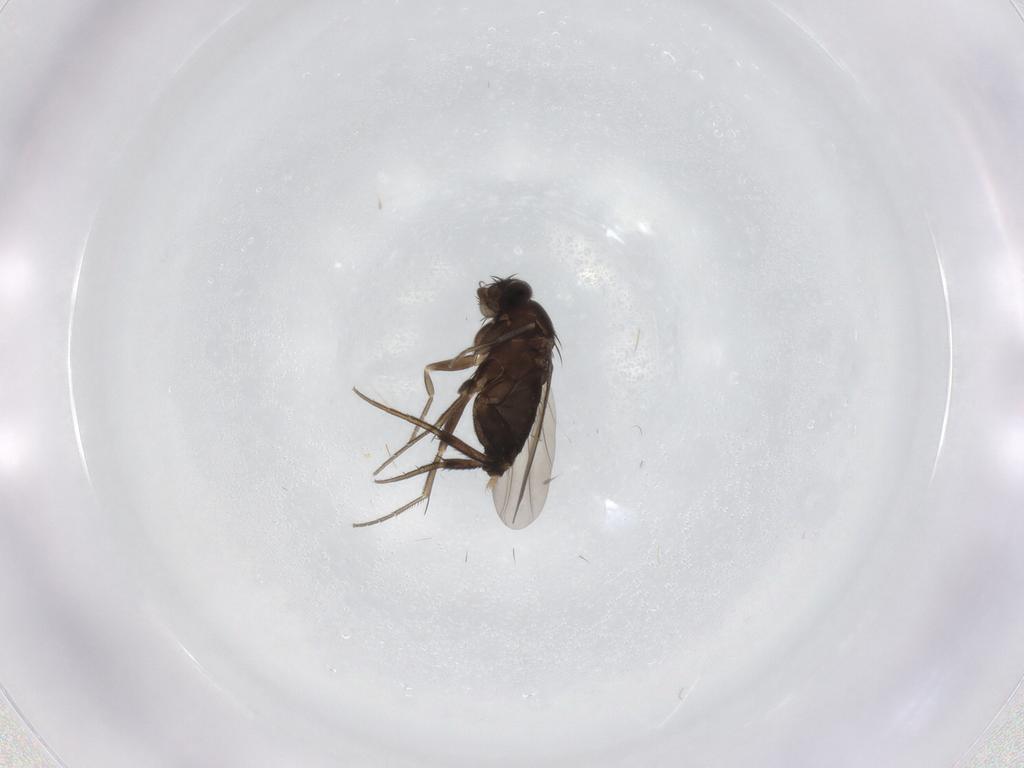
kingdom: Animalia
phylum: Arthropoda
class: Insecta
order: Diptera
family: Phoridae
